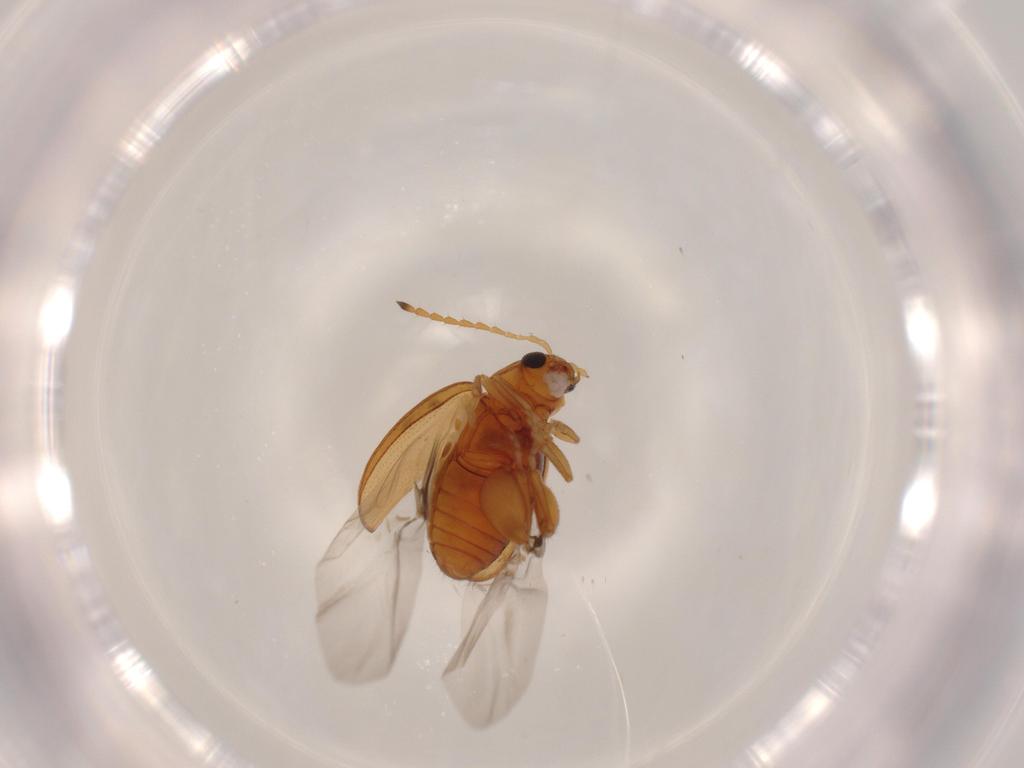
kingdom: Animalia
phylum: Arthropoda
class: Insecta
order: Coleoptera
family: Chrysomelidae
